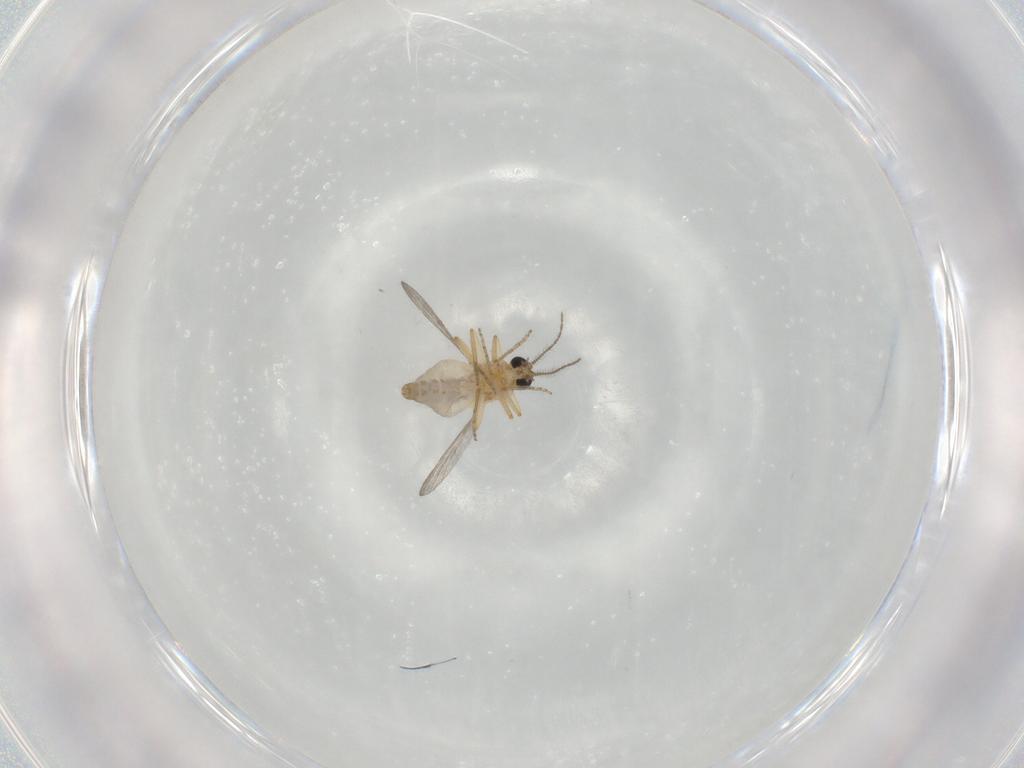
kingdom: Animalia
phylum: Arthropoda
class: Insecta
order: Diptera
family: Ceratopogonidae
